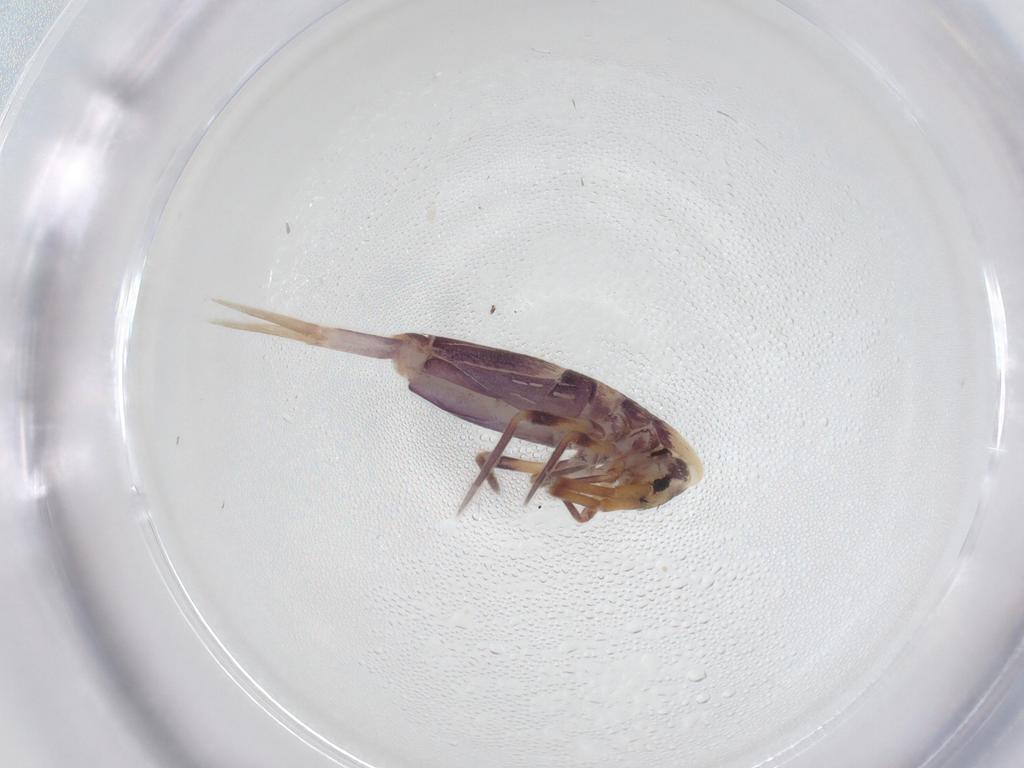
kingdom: Animalia
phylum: Arthropoda
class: Collembola
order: Entomobryomorpha
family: Entomobryidae
